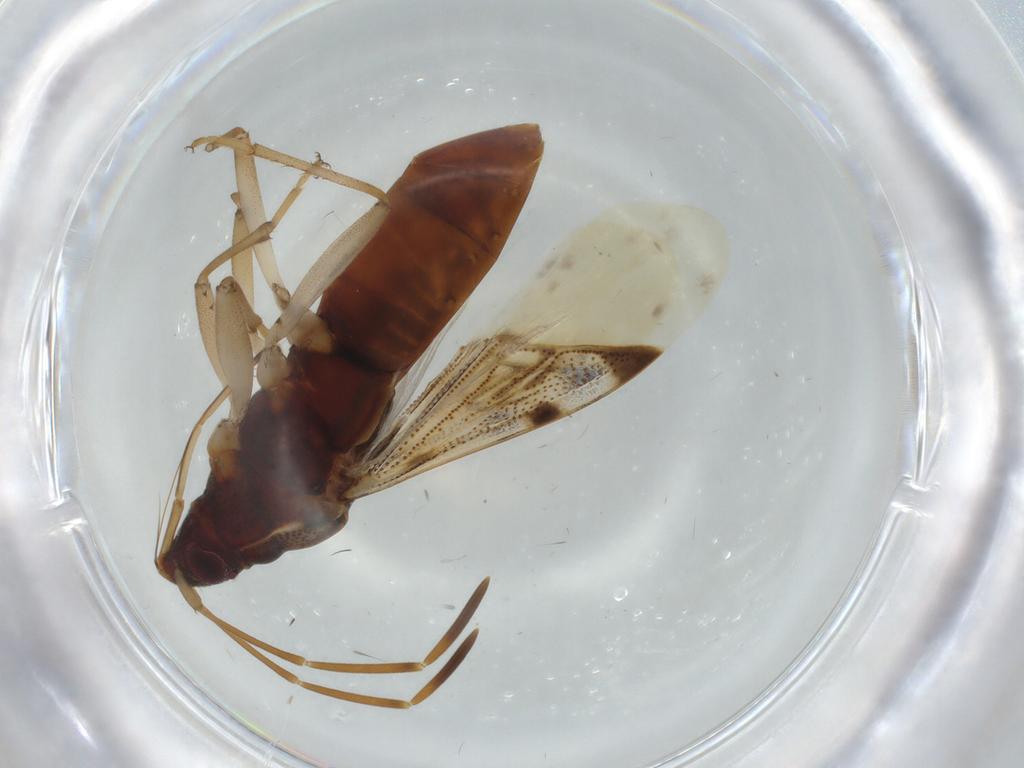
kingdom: Animalia
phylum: Arthropoda
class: Insecta
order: Hemiptera
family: Rhyparochromidae
